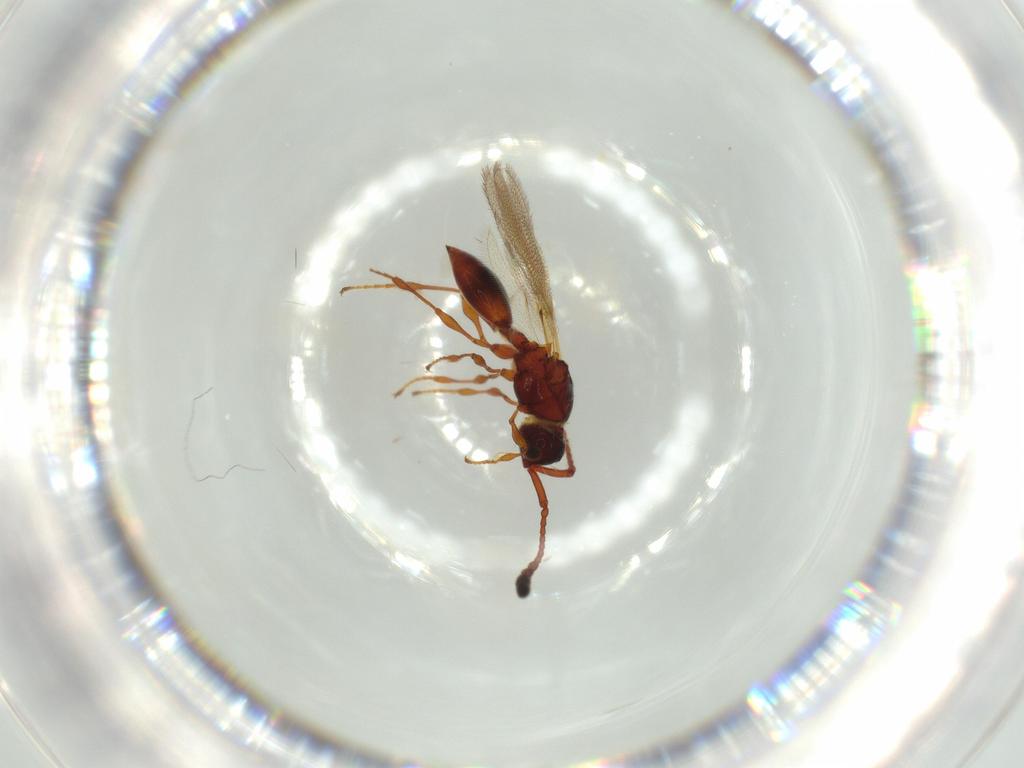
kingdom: Animalia
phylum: Arthropoda
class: Insecta
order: Hymenoptera
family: Diapriidae
